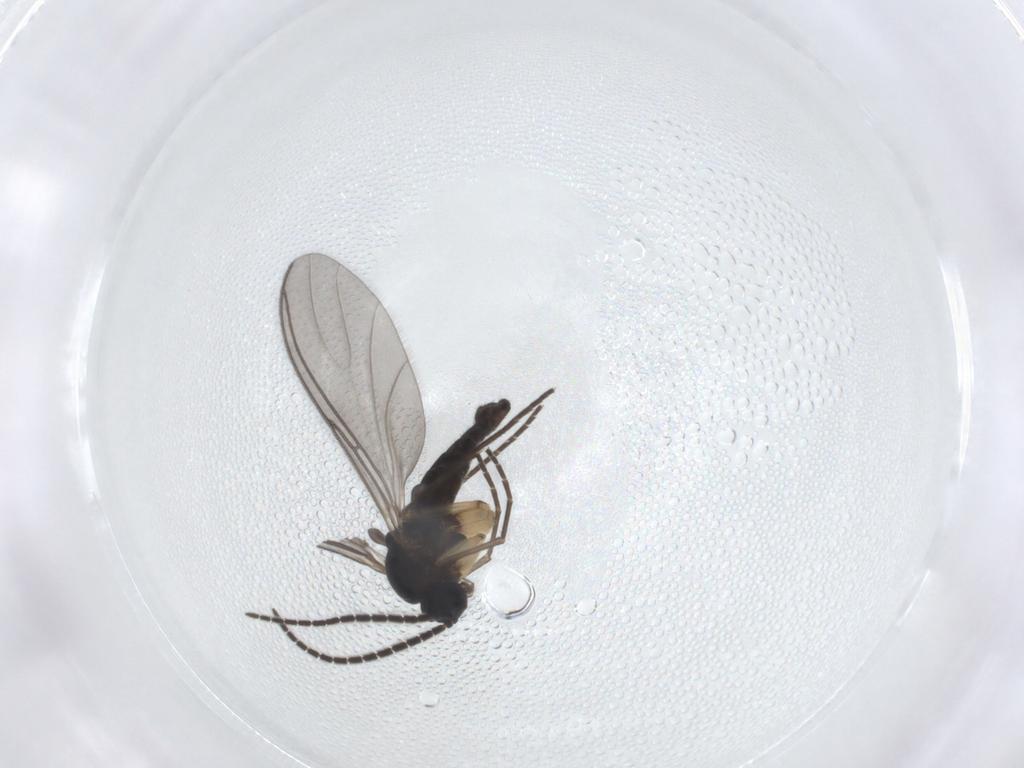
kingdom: Animalia
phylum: Arthropoda
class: Insecta
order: Diptera
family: Sciaridae
